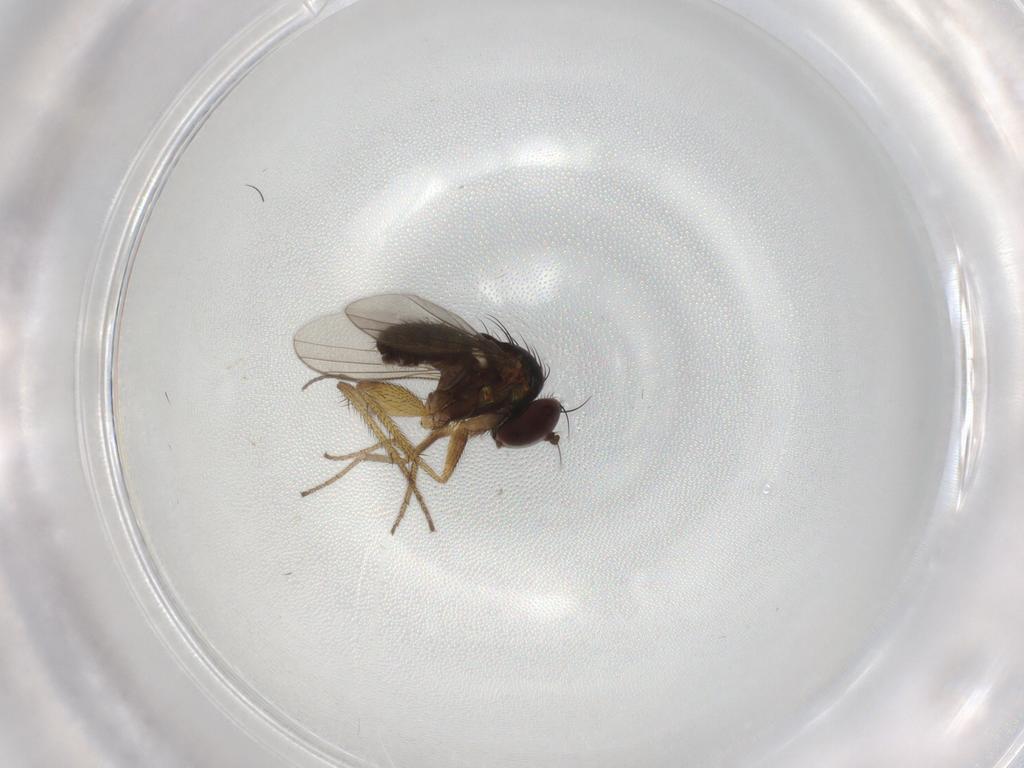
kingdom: Animalia
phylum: Arthropoda
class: Insecta
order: Diptera
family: Sciaridae
